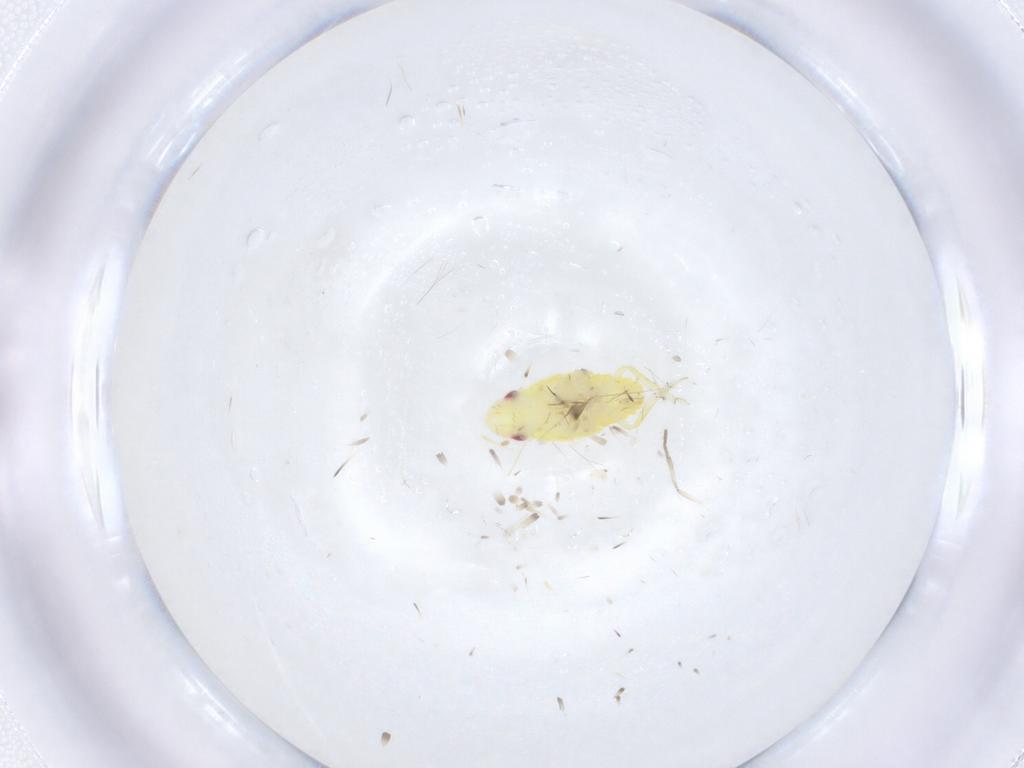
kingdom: Animalia
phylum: Arthropoda
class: Insecta
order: Hemiptera
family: Tropiduchidae
